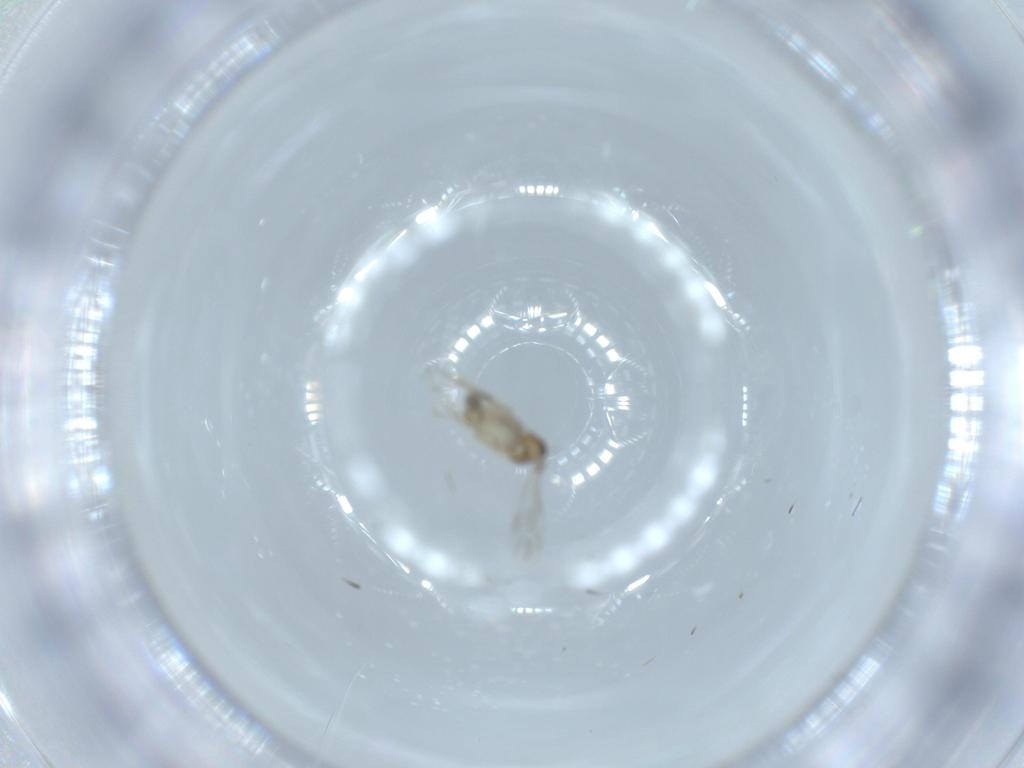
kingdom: Animalia
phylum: Arthropoda
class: Insecta
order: Diptera
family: Cecidomyiidae
